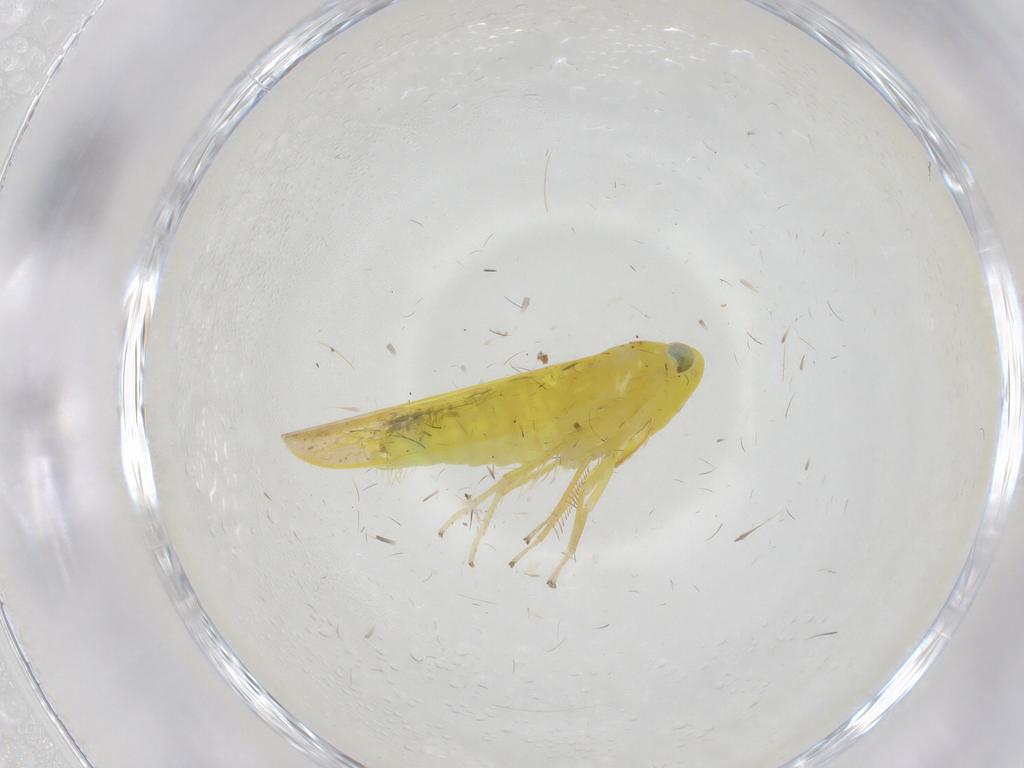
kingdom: Animalia
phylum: Arthropoda
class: Insecta
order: Hemiptera
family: Cicadellidae
